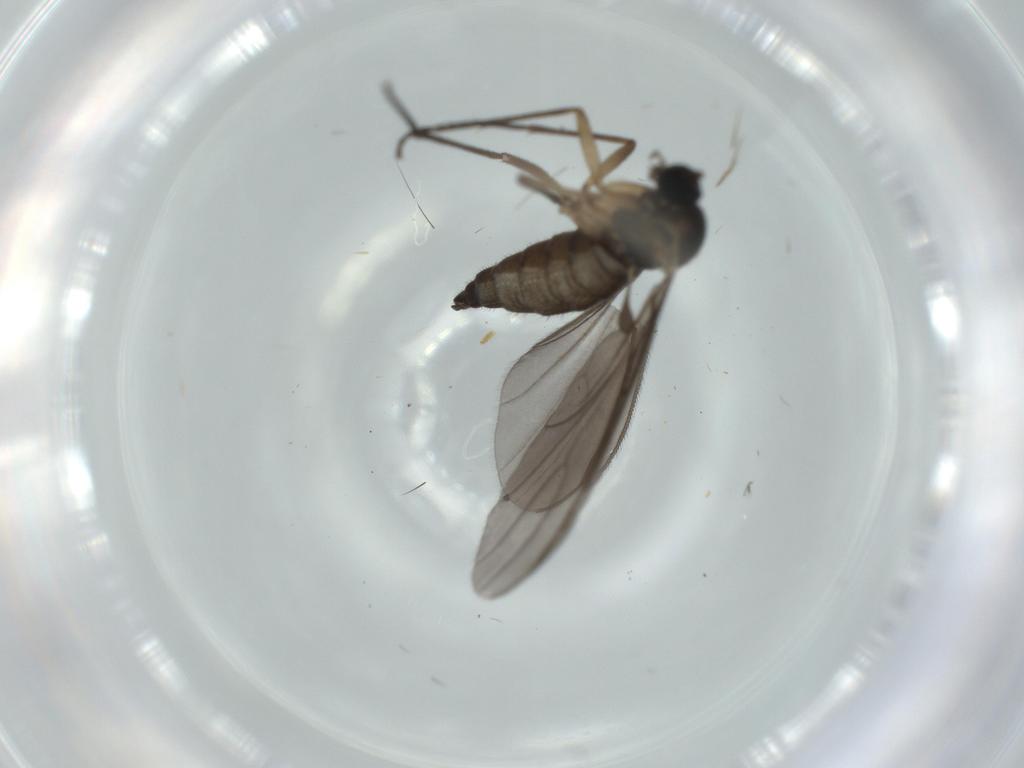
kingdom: Animalia
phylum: Arthropoda
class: Insecta
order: Diptera
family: Sciaridae
